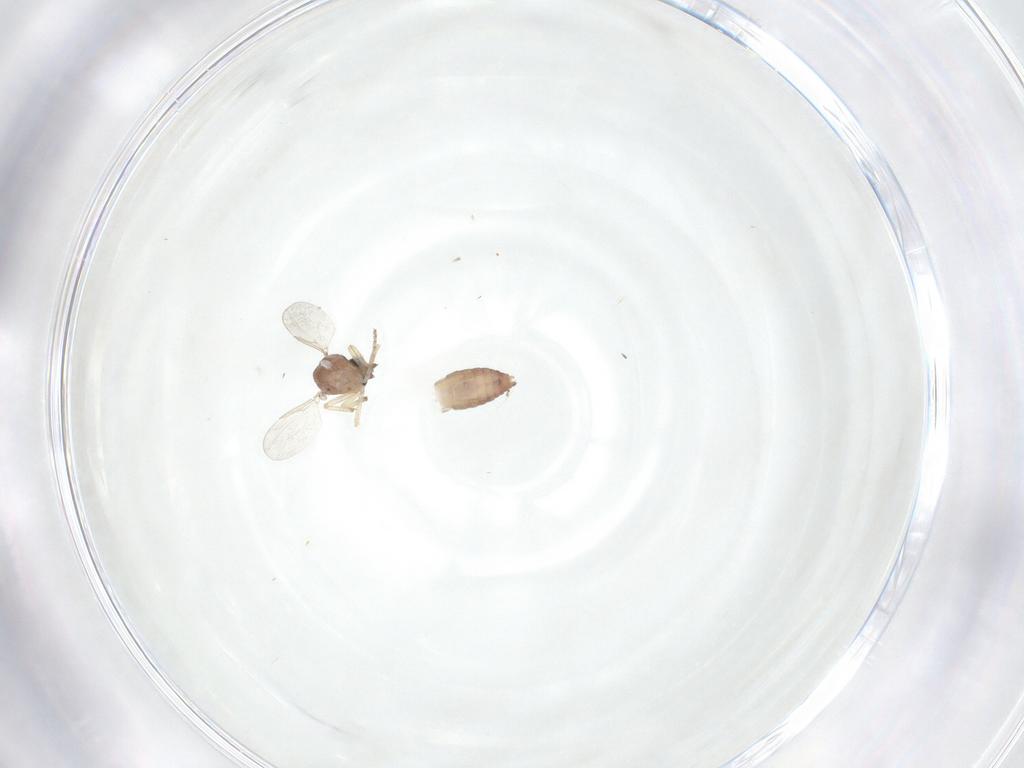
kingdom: Animalia
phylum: Arthropoda
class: Insecta
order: Diptera
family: Ceratopogonidae
